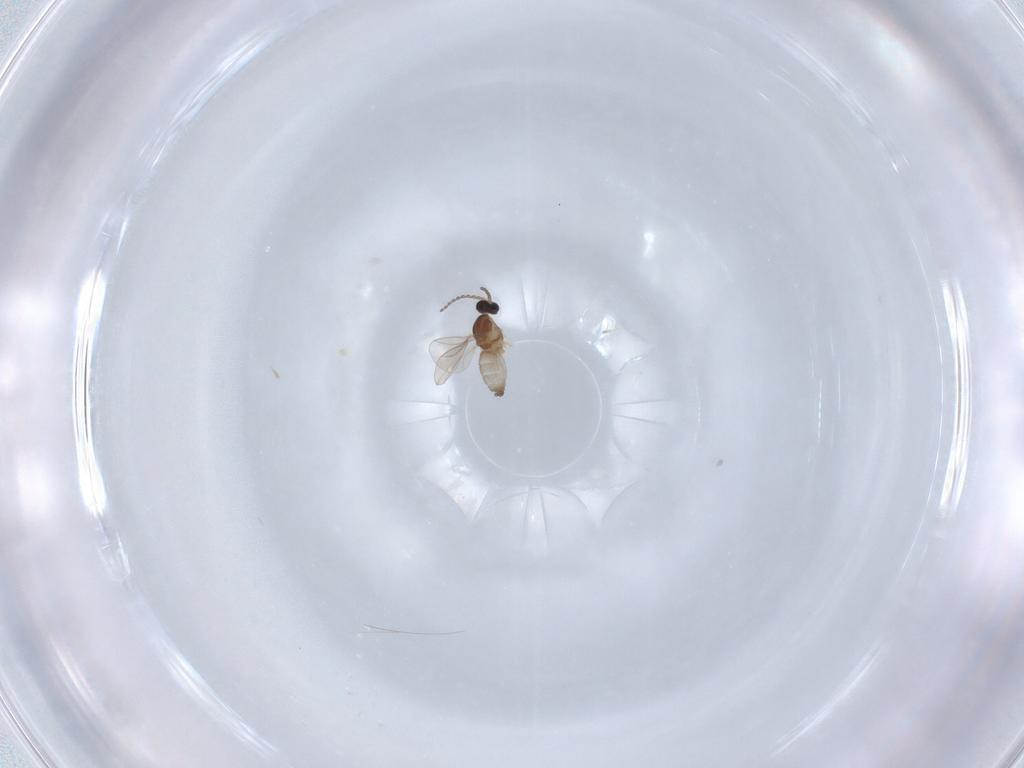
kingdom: Animalia
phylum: Arthropoda
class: Insecta
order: Diptera
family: Cecidomyiidae
